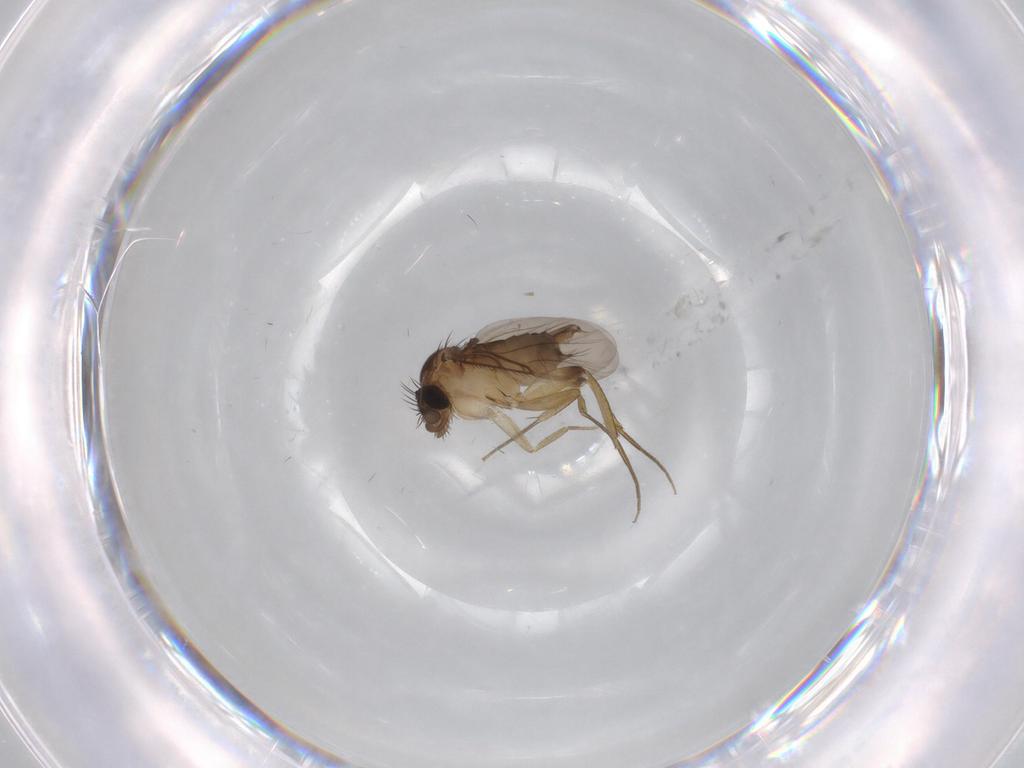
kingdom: Animalia
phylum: Arthropoda
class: Insecta
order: Diptera
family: Phoridae
